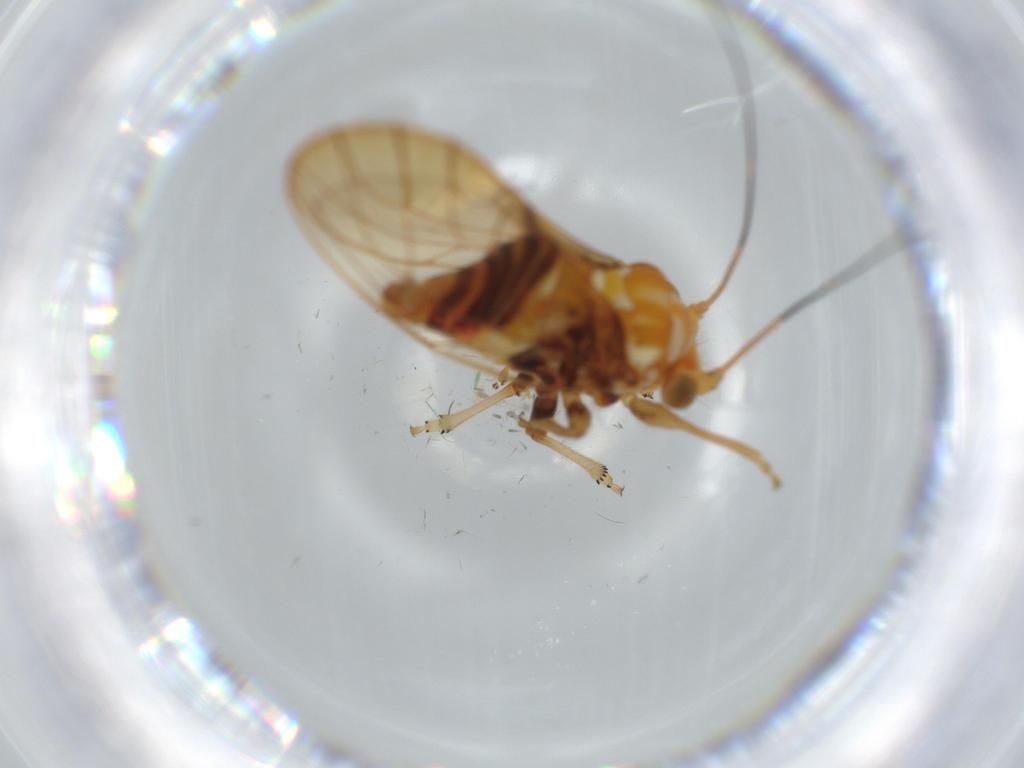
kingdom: Animalia
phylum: Arthropoda
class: Insecta
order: Hemiptera
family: Psyllidae
